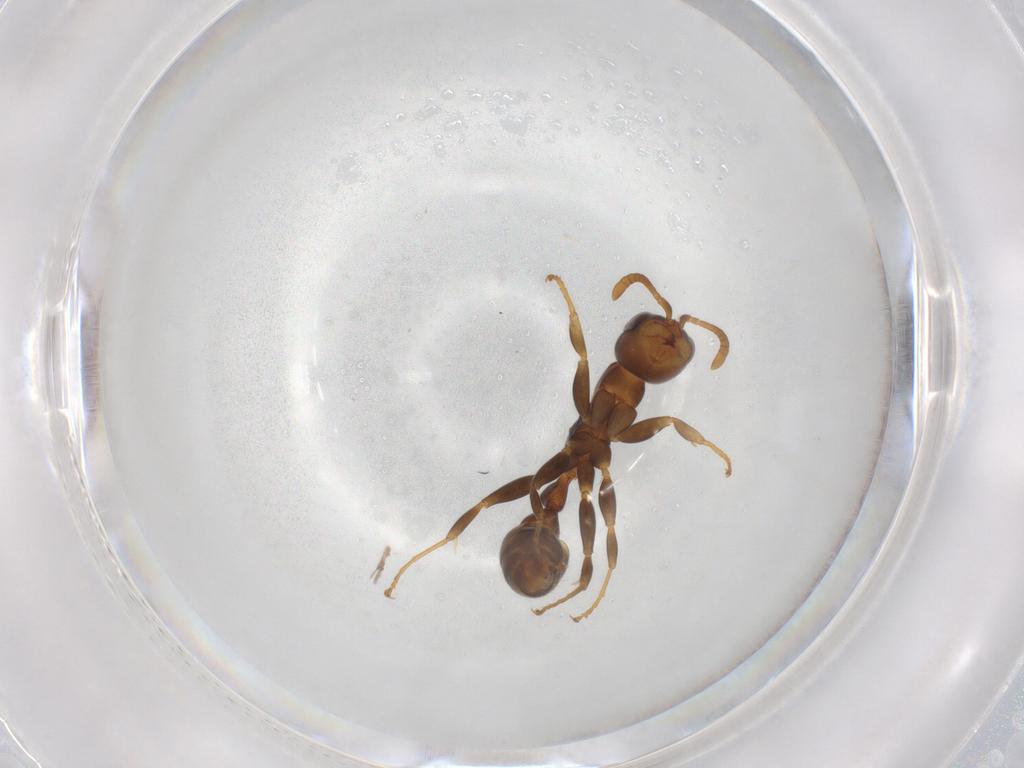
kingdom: Animalia
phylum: Arthropoda
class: Insecta
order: Hymenoptera
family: Formicidae
